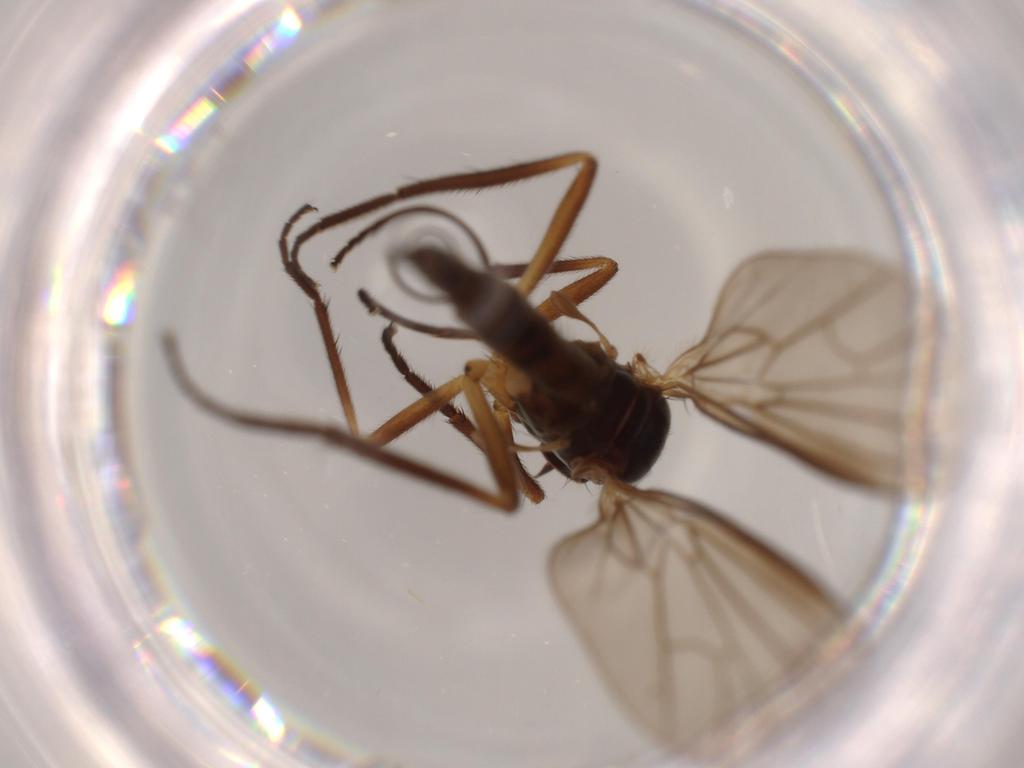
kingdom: Animalia
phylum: Arthropoda
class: Insecta
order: Diptera
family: Empididae
